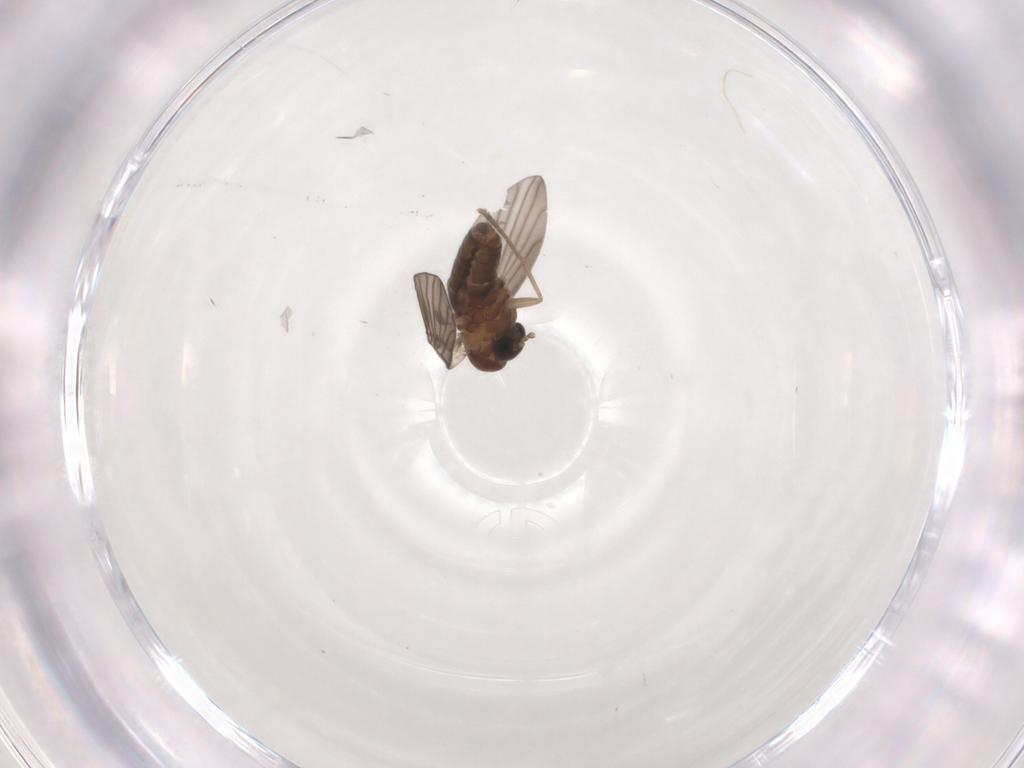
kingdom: Animalia
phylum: Arthropoda
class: Insecta
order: Diptera
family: Psychodidae
